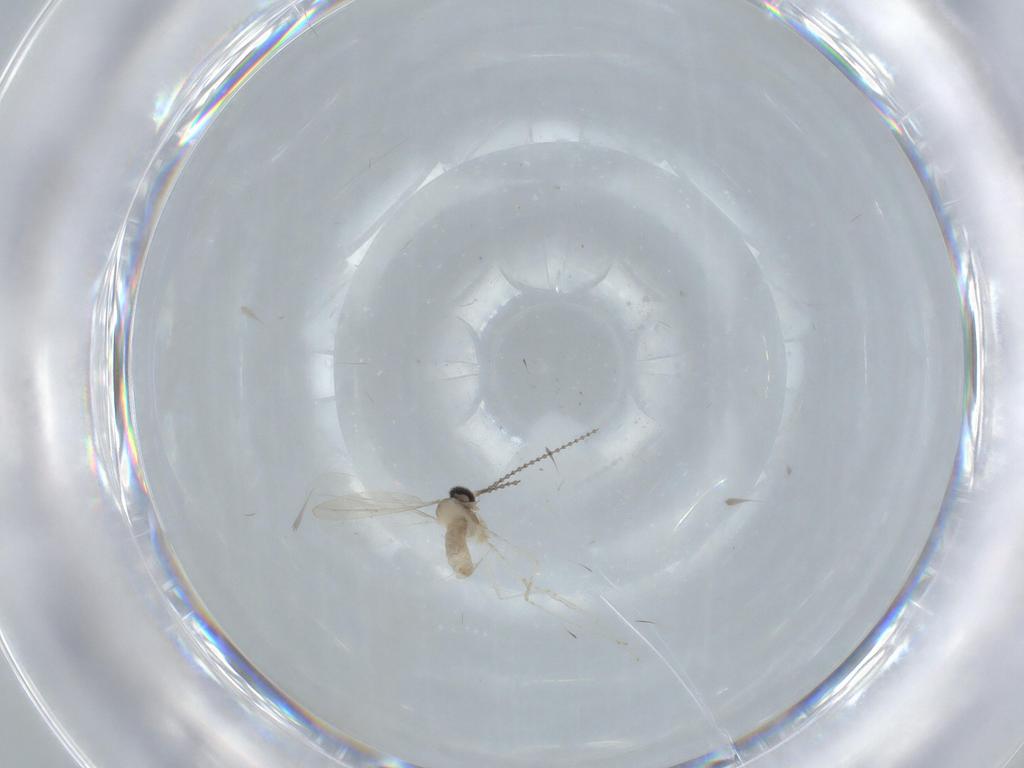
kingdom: Animalia
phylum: Arthropoda
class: Insecta
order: Diptera
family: Cecidomyiidae
